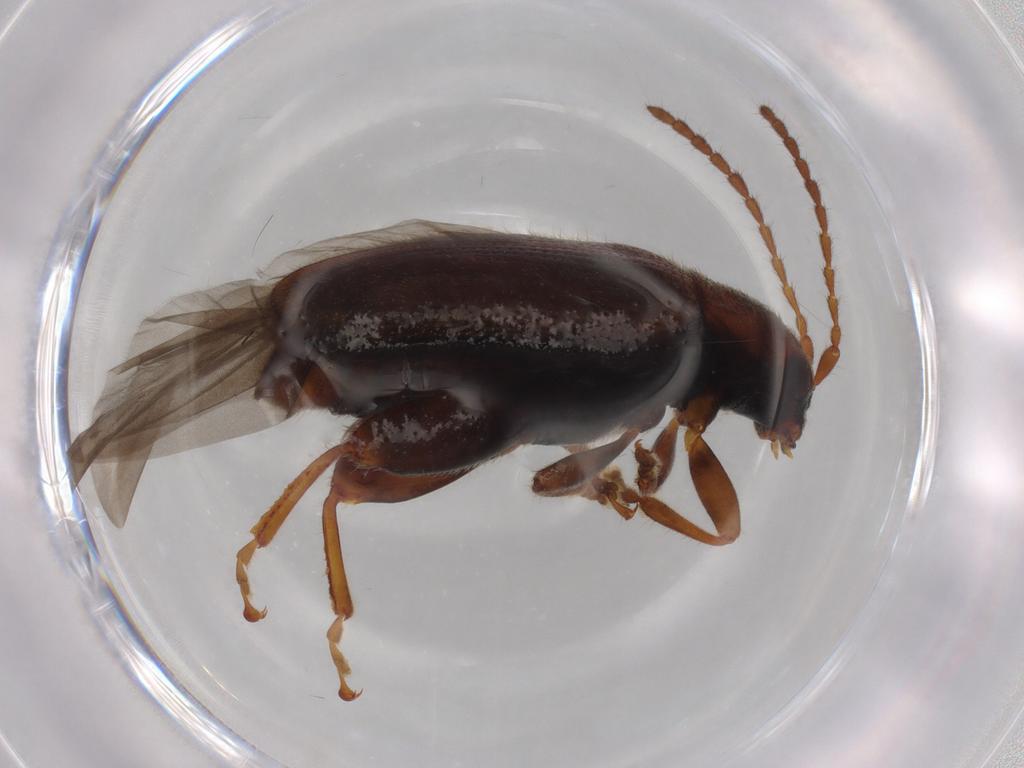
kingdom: Animalia
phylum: Arthropoda
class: Insecta
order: Coleoptera
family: Chrysomelidae
